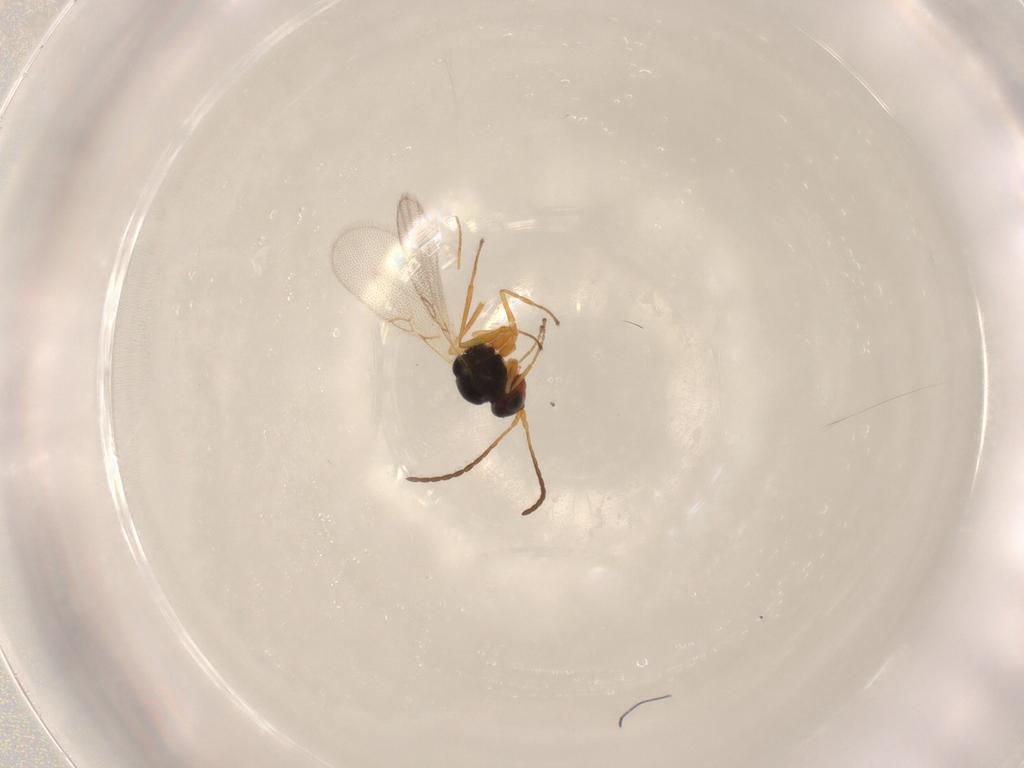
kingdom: Animalia
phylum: Arthropoda
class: Insecta
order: Hymenoptera
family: Figitidae
